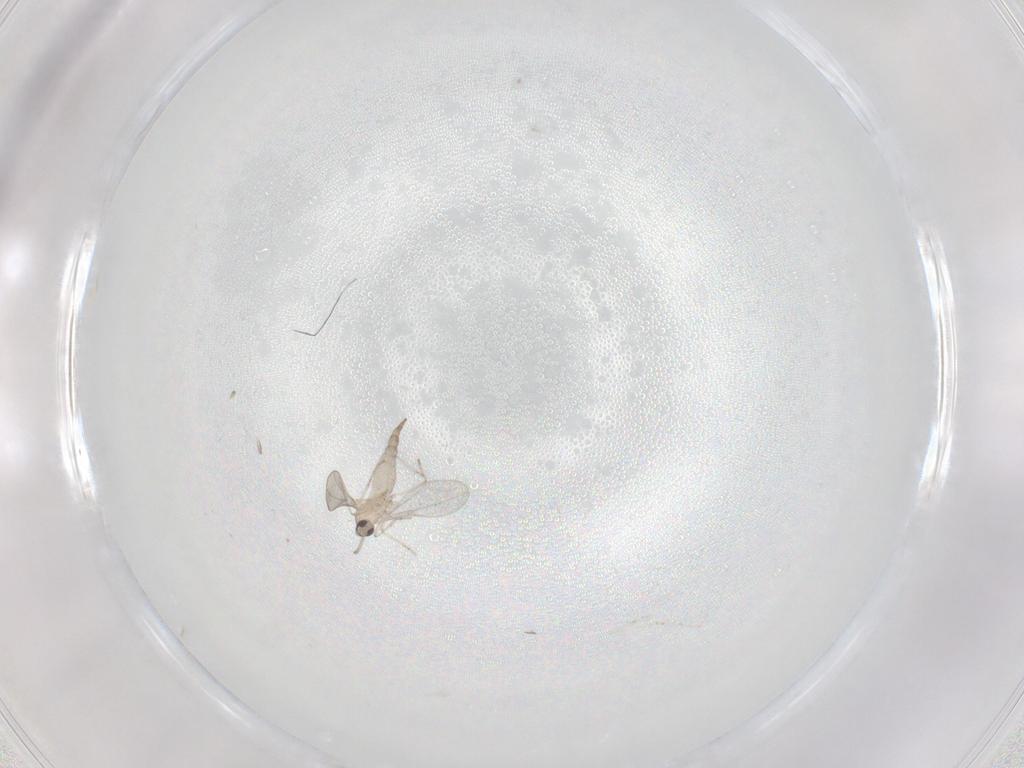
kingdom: Animalia
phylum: Arthropoda
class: Insecta
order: Diptera
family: Cecidomyiidae
